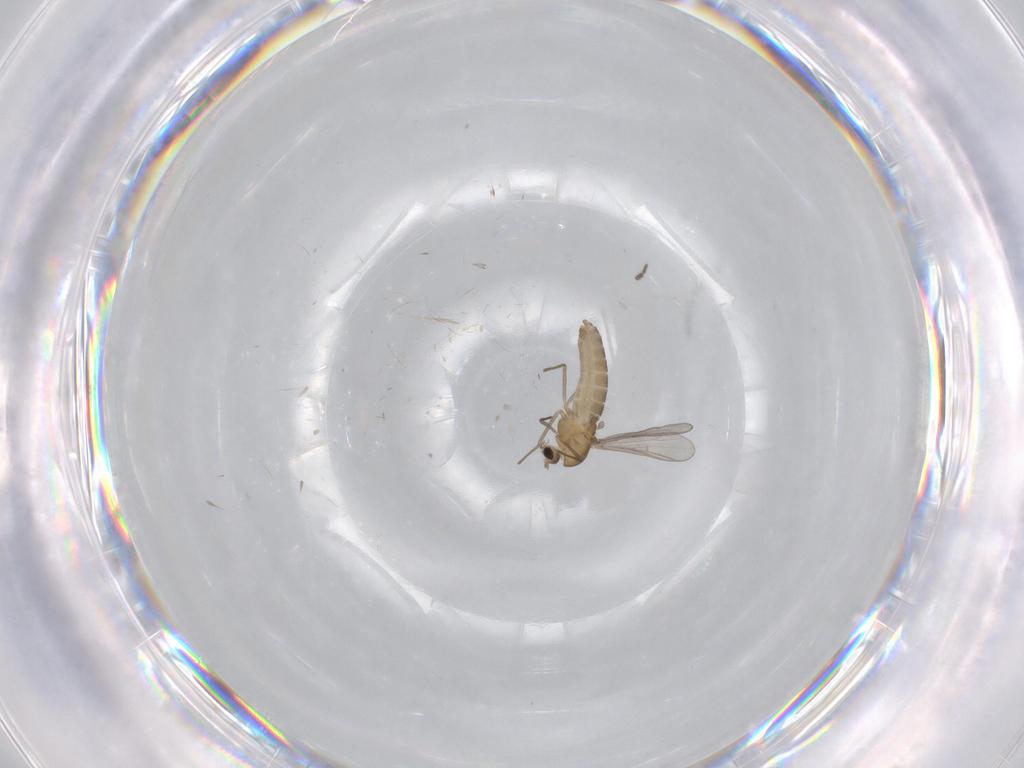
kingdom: Animalia
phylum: Arthropoda
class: Insecta
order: Diptera
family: Chironomidae
